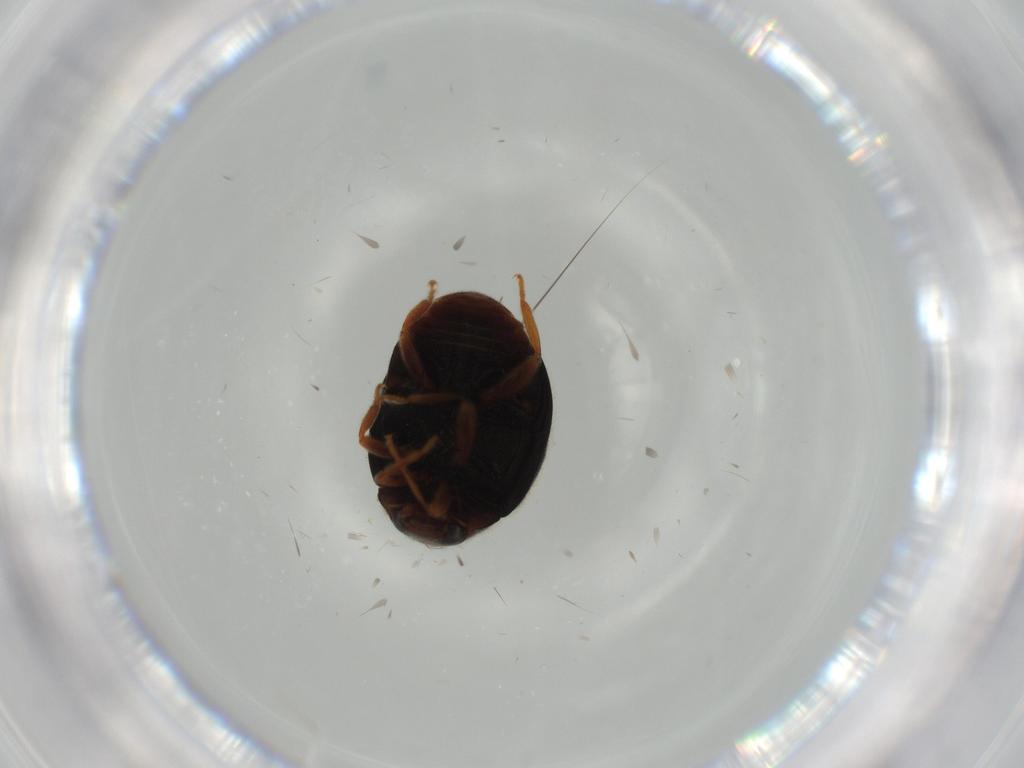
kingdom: Animalia
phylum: Arthropoda
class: Insecta
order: Coleoptera
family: Coccinellidae
